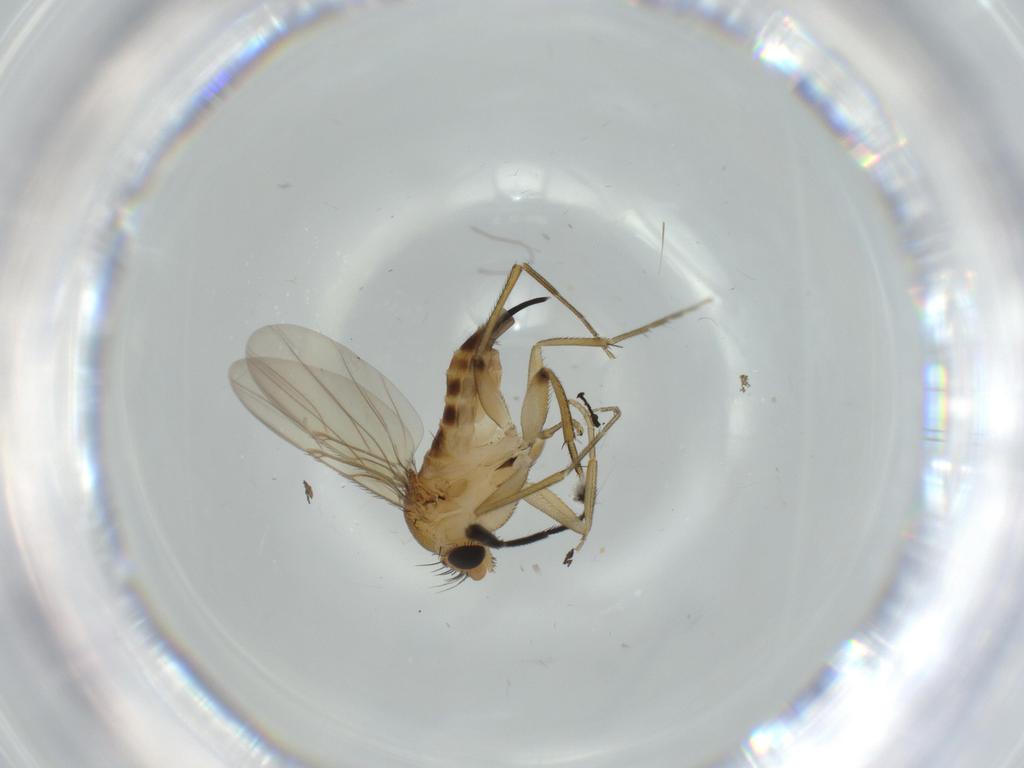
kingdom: Animalia
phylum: Arthropoda
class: Insecta
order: Diptera
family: Phoridae
